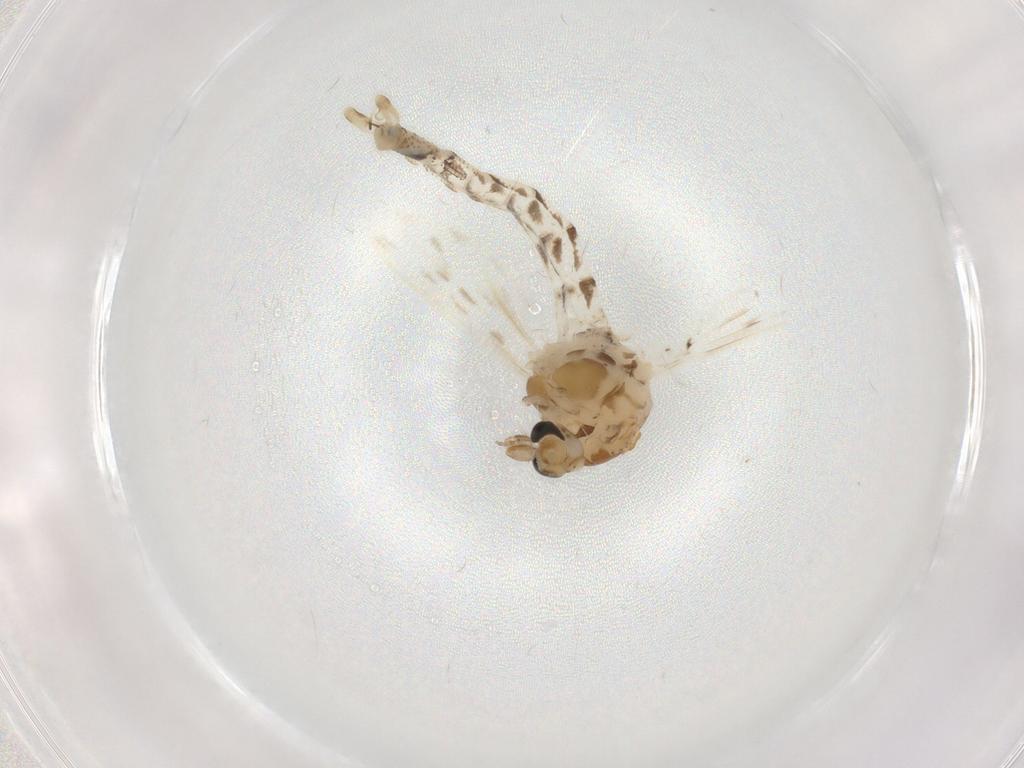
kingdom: Animalia
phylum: Arthropoda
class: Insecta
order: Diptera
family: Chaoboridae
